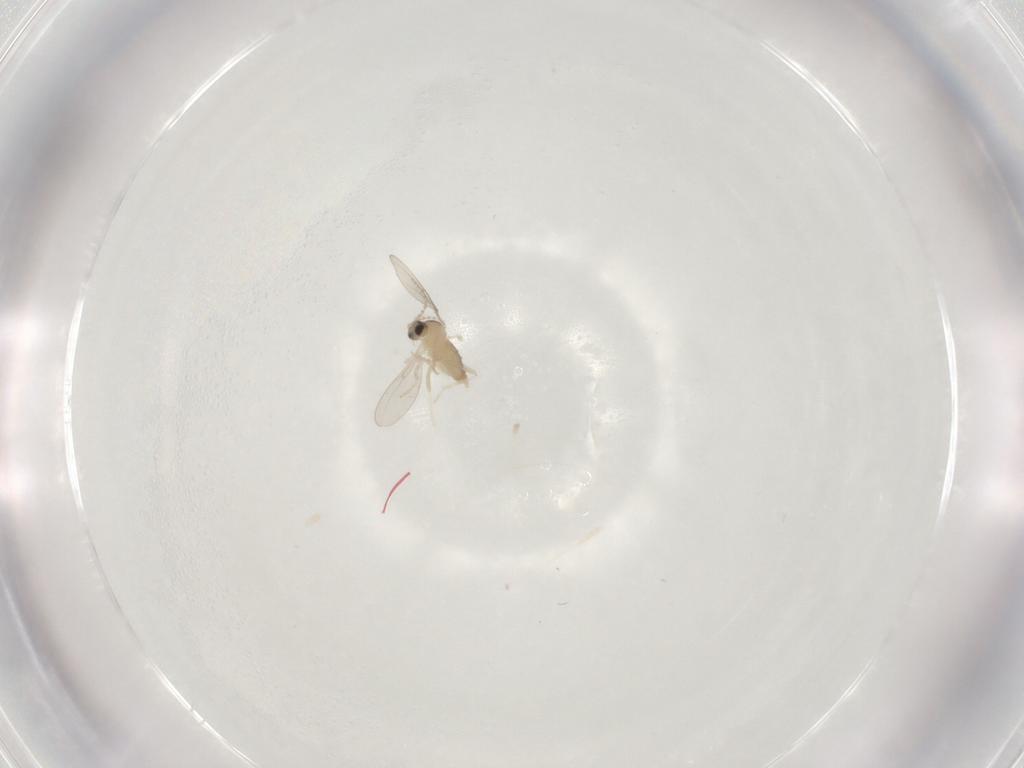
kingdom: Animalia
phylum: Arthropoda
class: Insecta
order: Diptera
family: Cecidomyiidae
